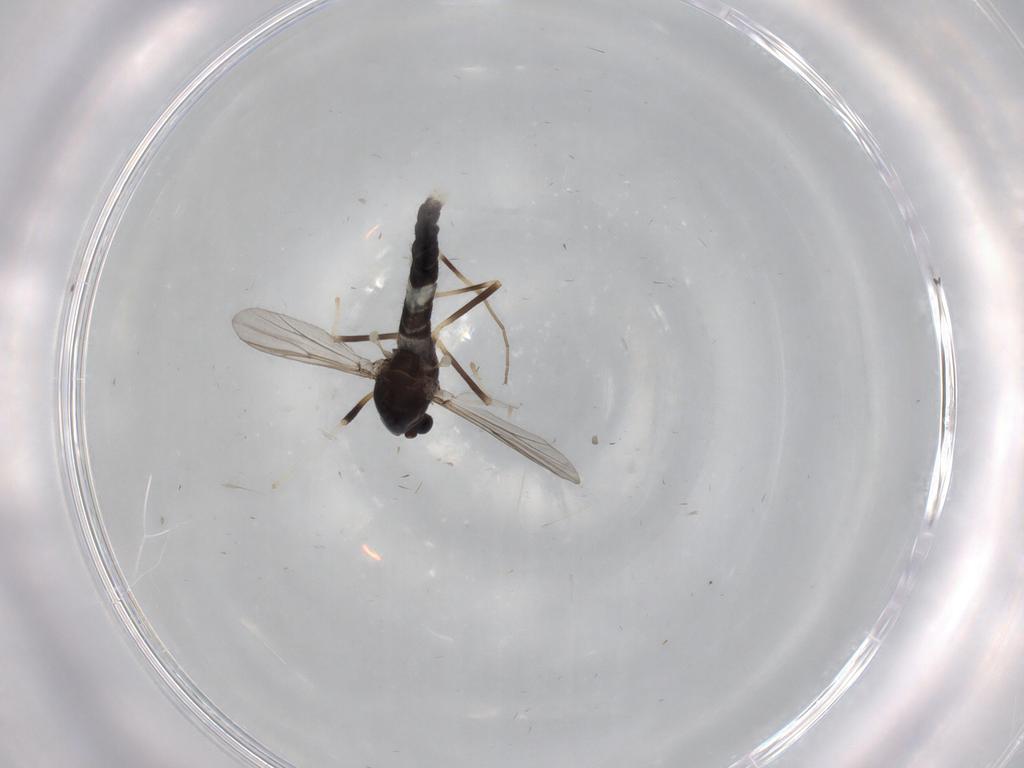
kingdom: Animalia
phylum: Arthropoda
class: Insecta
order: Diptera
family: Chironomidae
